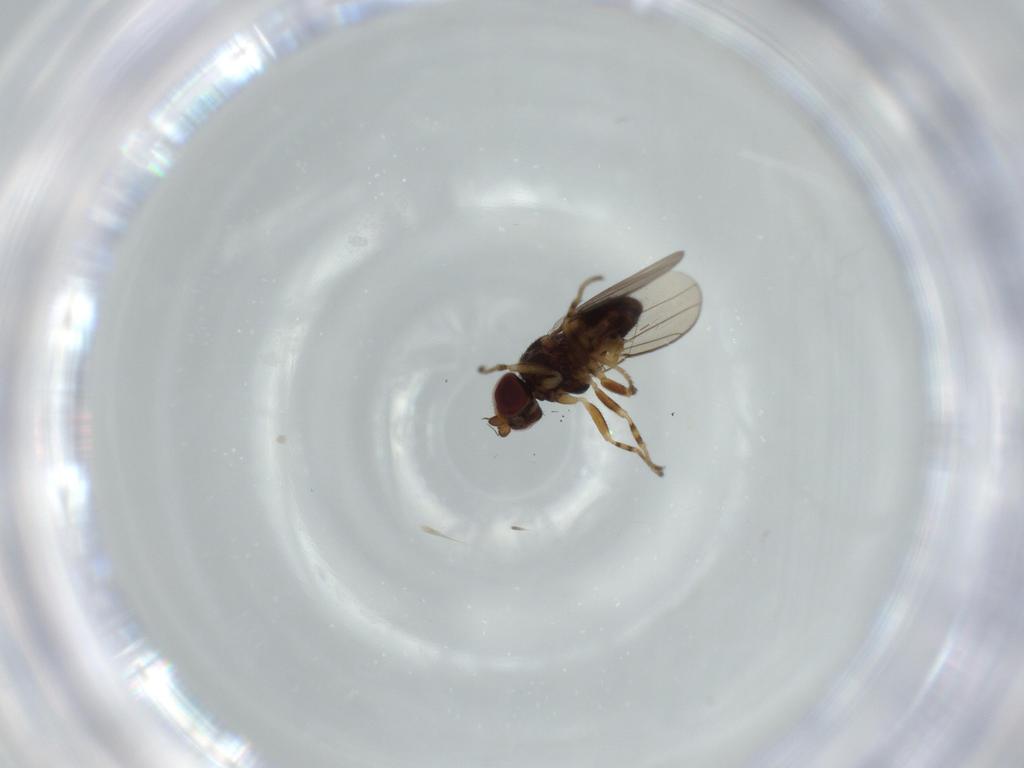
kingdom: Animalia
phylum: Arthropoda
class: Insecta
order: Diptera
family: Chloropidae
